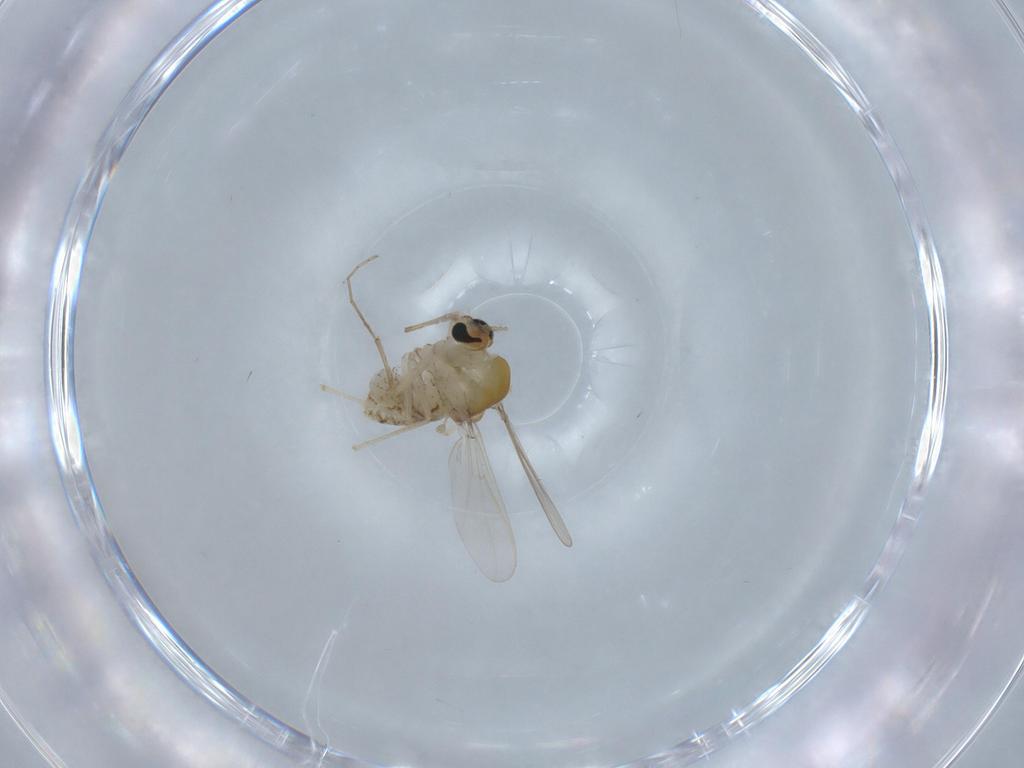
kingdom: Animalia
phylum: Arthropoda
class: Insecta
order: Diptera
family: Chironomidae
